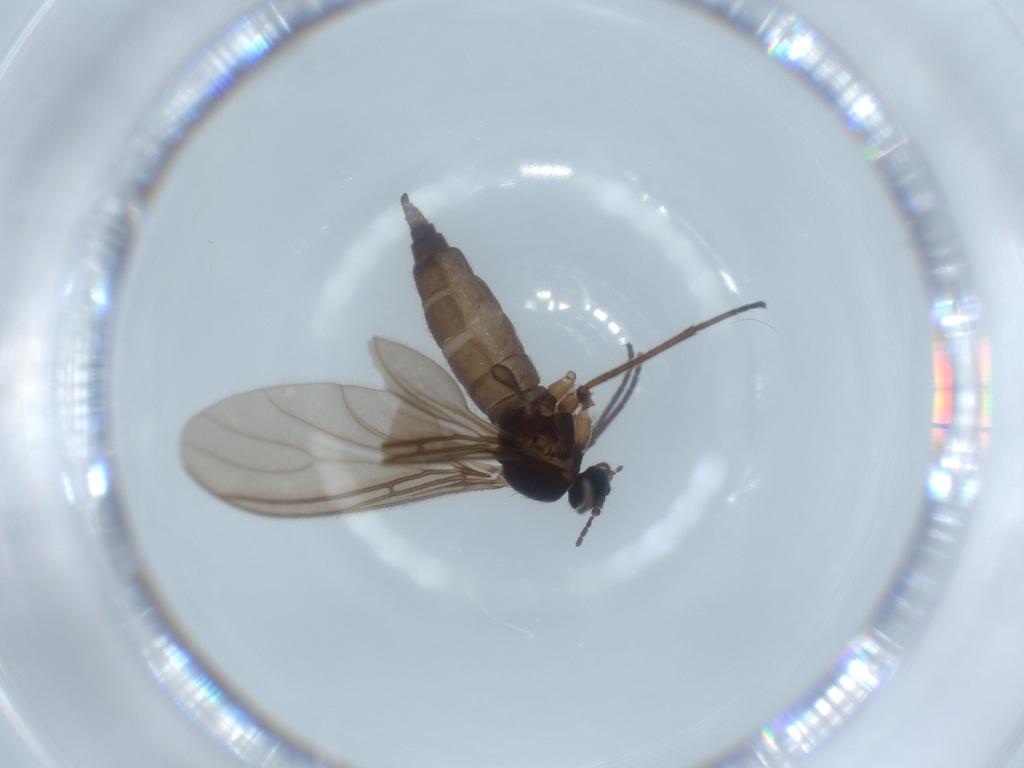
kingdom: Animalia
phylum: Arthropoda
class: Insecta
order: Diptera
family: Sciaridae
